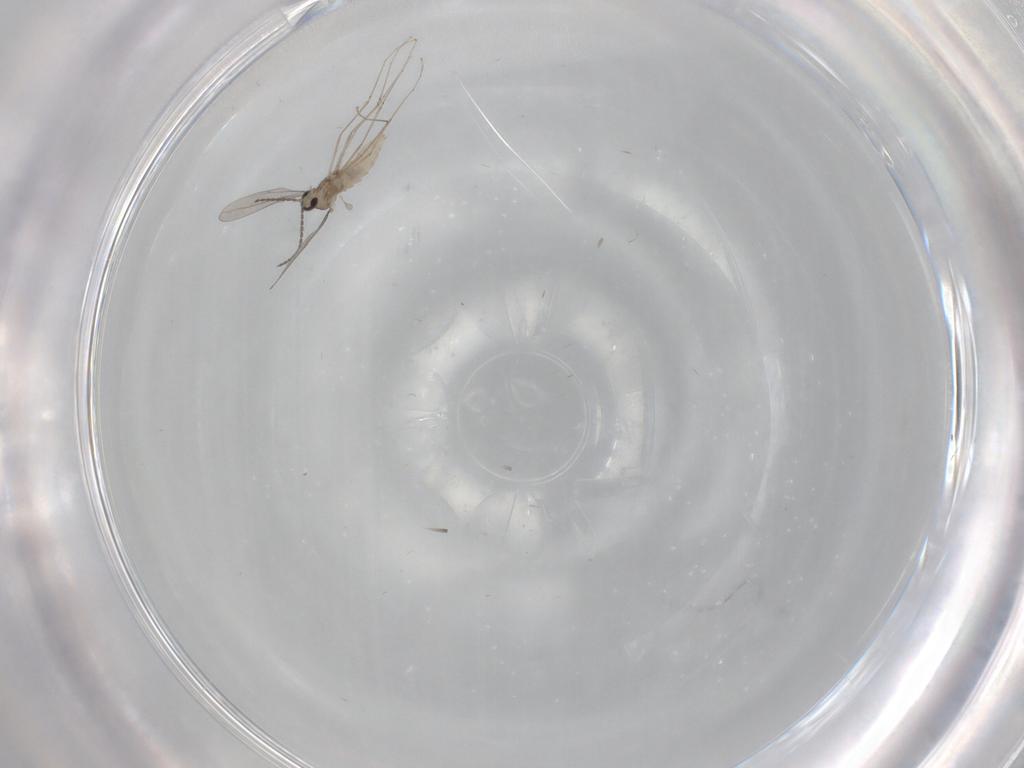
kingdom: Animalia
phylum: Arthropoda
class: Insecta
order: Diptera
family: Cecidomyiidae
